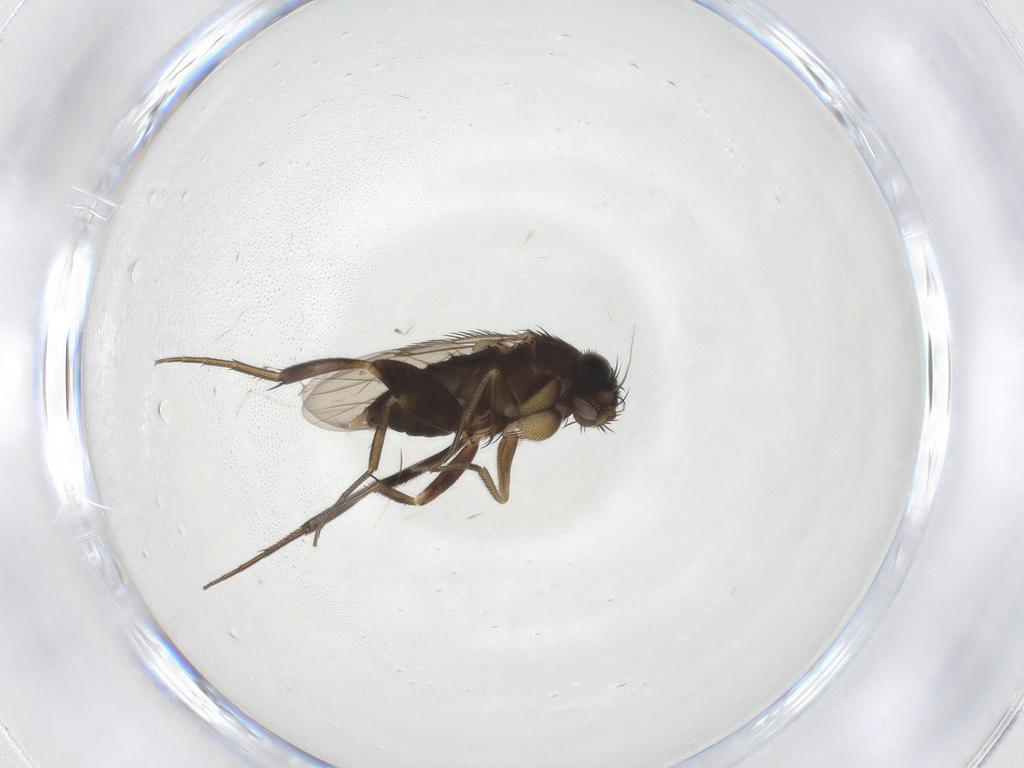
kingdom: Animalia
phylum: Arthropoda
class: Insecta
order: Diptera
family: Phoridae
